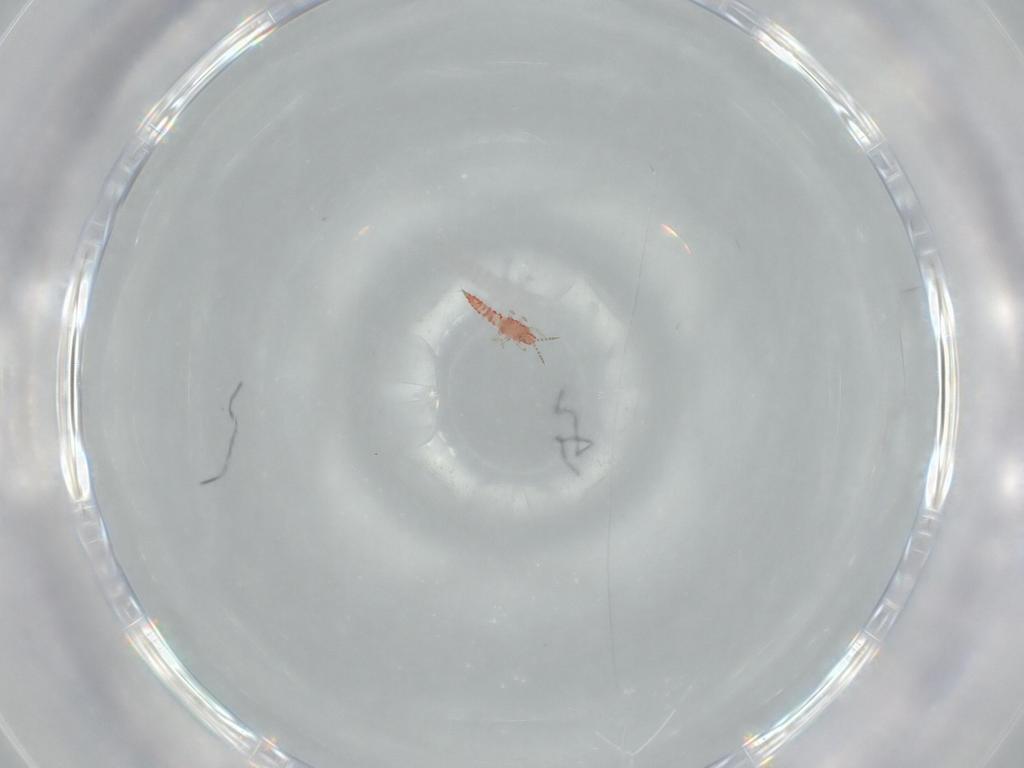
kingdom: Animalia
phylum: Arthropoda
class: Insecta
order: Thysanoptera
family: Phlaeothripidae
